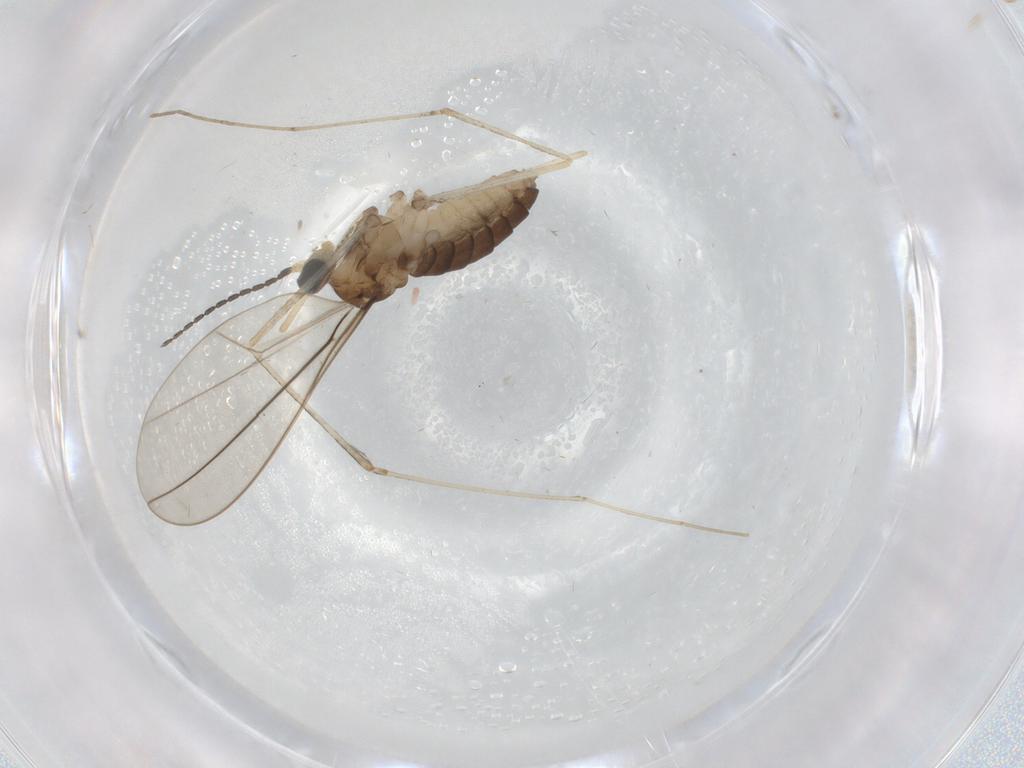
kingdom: Animalia
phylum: Arthropoda
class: Insecta
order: Diptera
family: Cecidomyiidae
